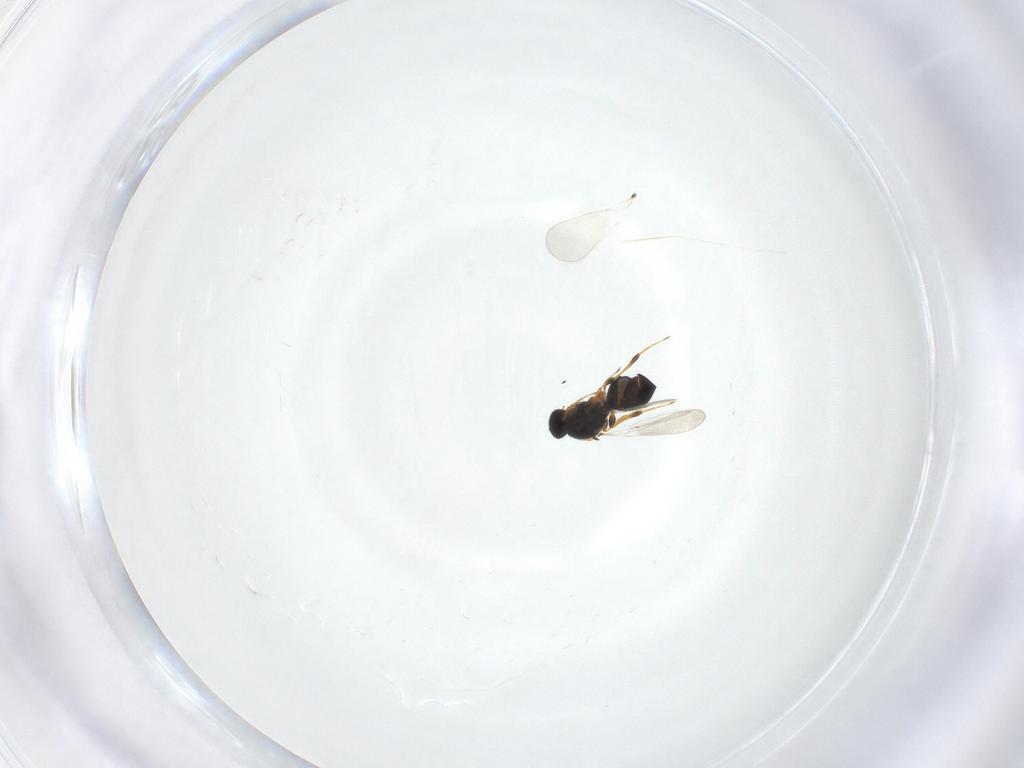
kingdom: Animalia
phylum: Arthropoda
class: Insecta
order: Hymenoptera
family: Platygastridae
